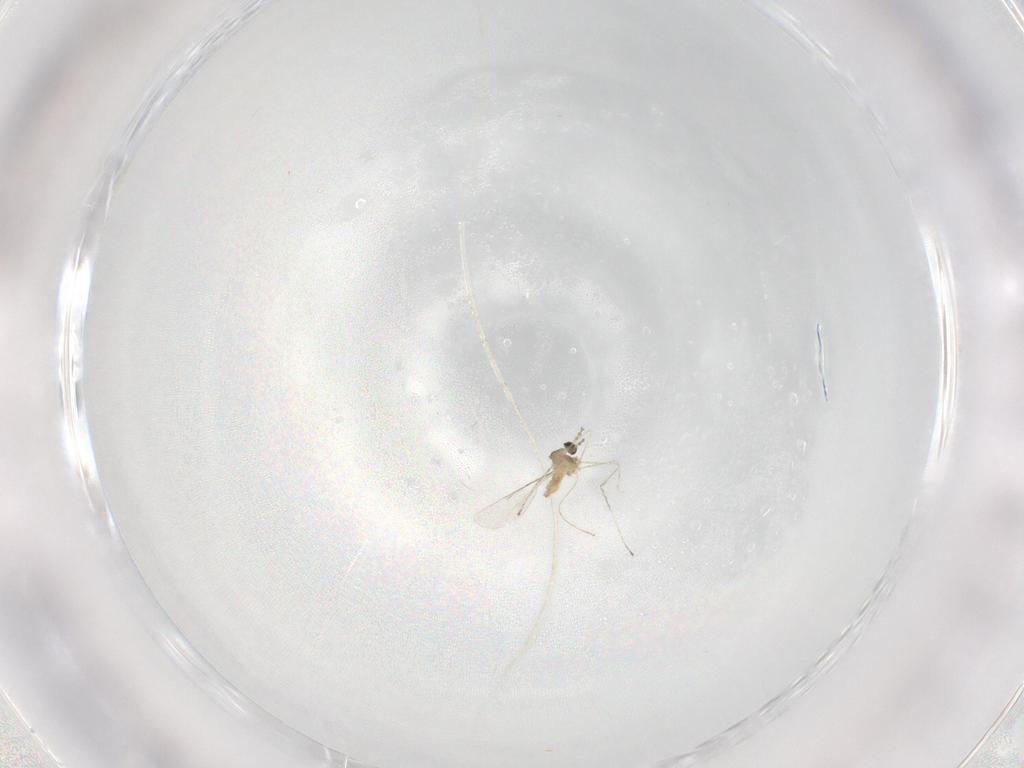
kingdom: Animalia
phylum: Arthropoda
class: Insecta
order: Diptera
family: Cecidomyiidae
